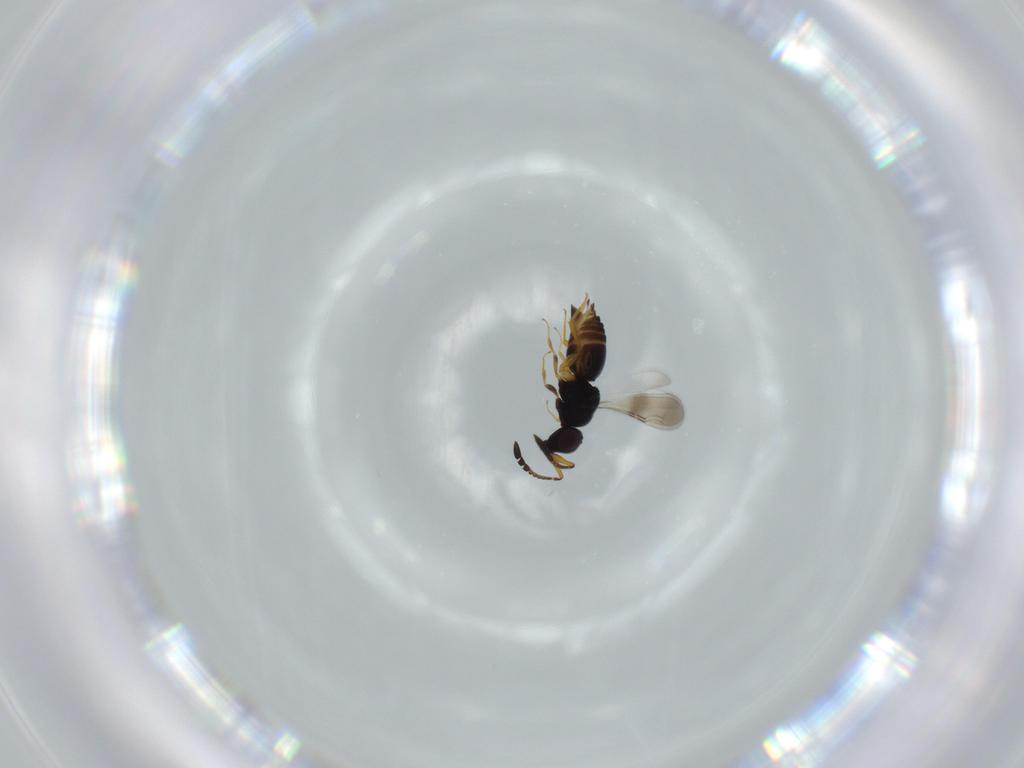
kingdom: Animalia
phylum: Arthropoda
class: Insecta
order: Hymenoptera
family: Ceraphronidae
